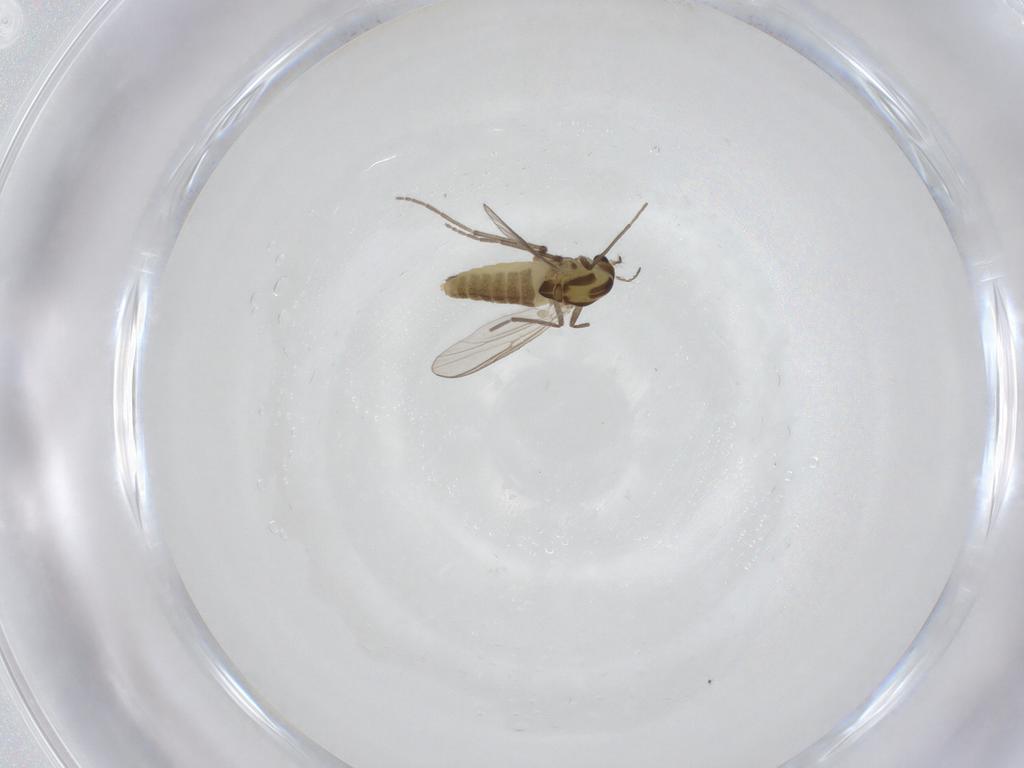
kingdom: Animalia
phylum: Arthropoda
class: Insecta
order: Diptera
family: Chironomidae
